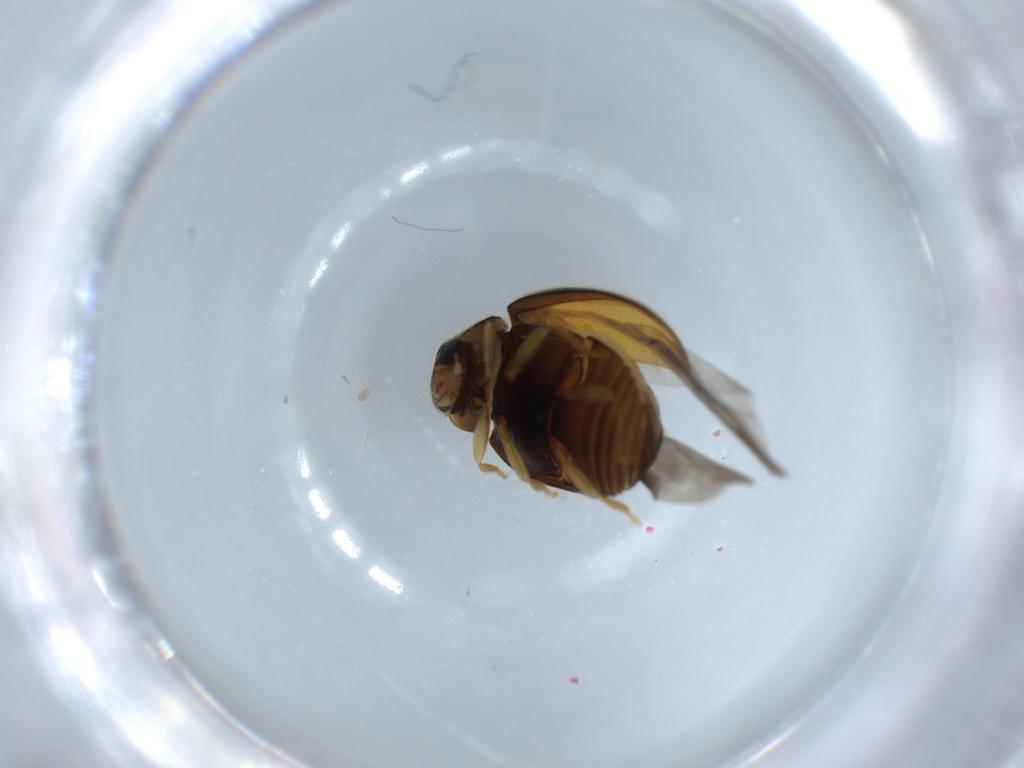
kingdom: Animalia
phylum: Arthropoda
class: Insecta
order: Coleoptera
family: Coccinellidae
